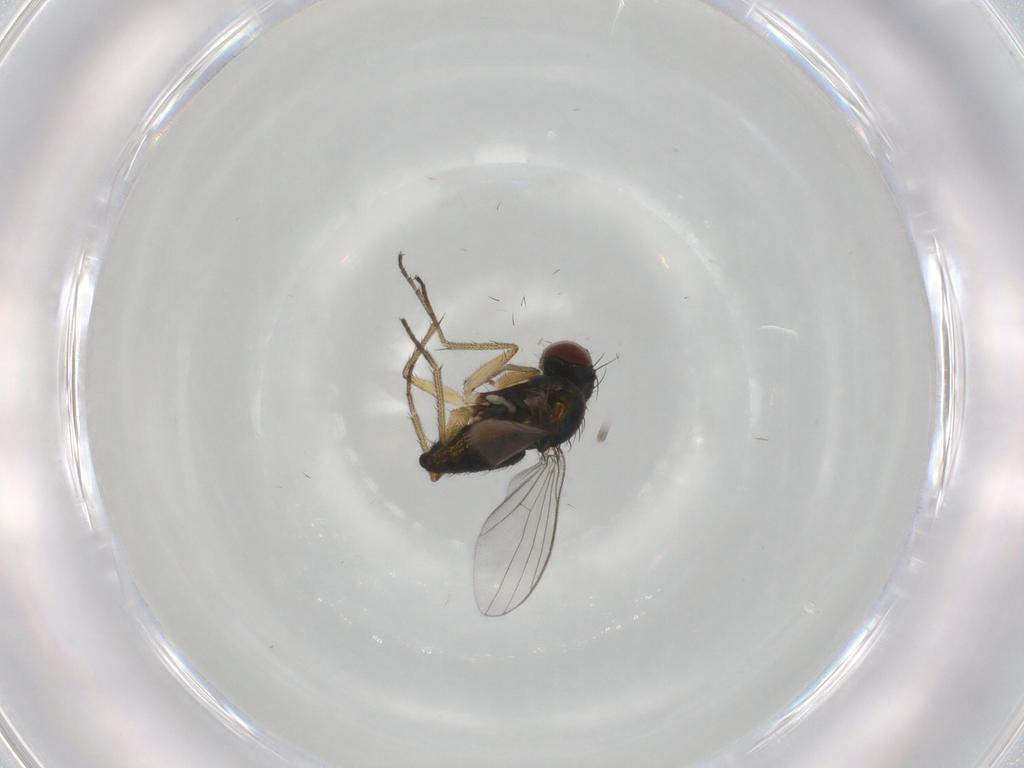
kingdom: Animalia
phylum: Arthropoda
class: Insecta
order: Diptera
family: Dolichopodidae
